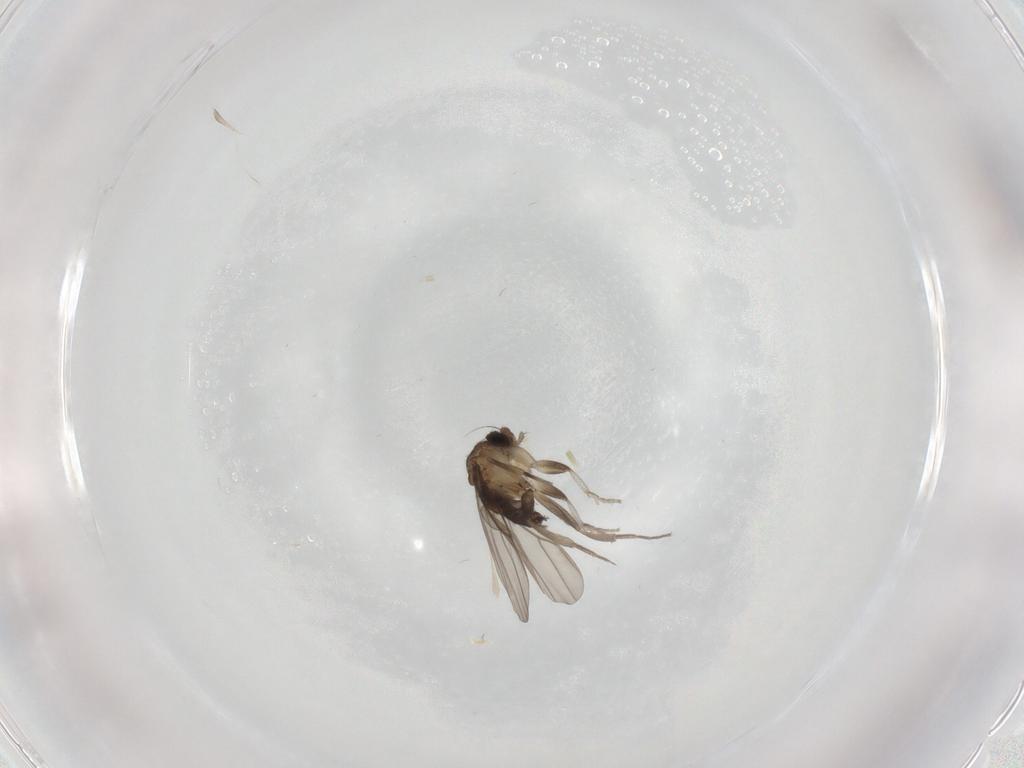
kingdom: Animalia
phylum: Arthropoda
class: Insecta
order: Diptera
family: Phoridae
